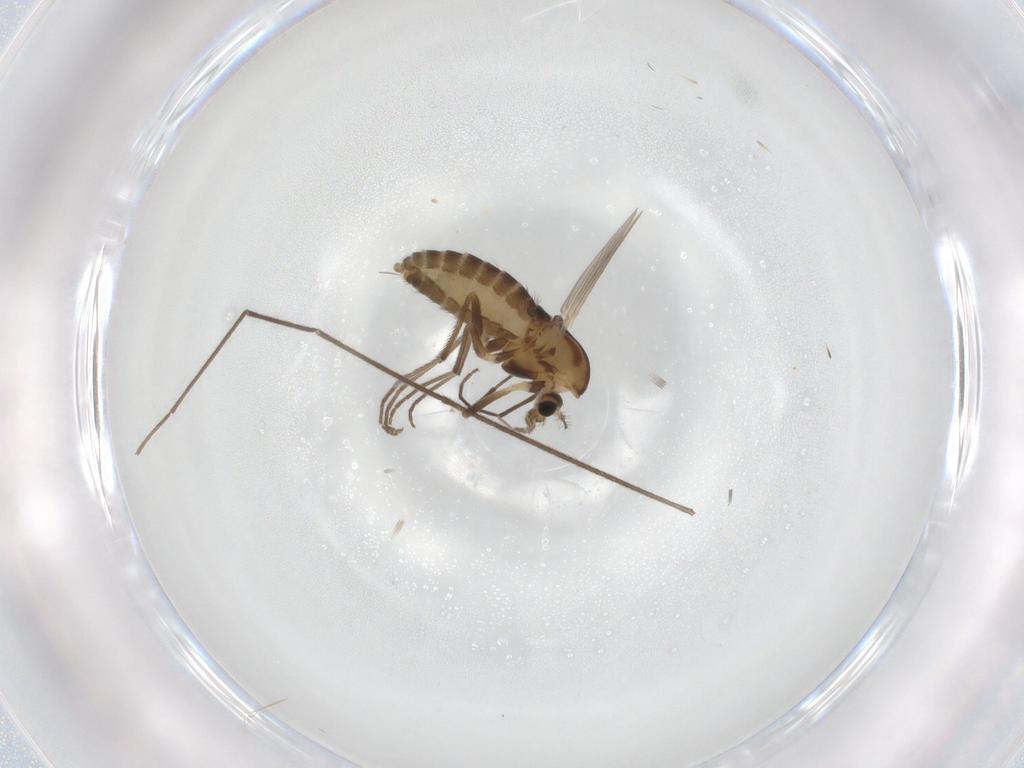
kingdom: Animalia
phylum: Arthropoda
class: Insecta
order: Diptera
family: Chironomidae
